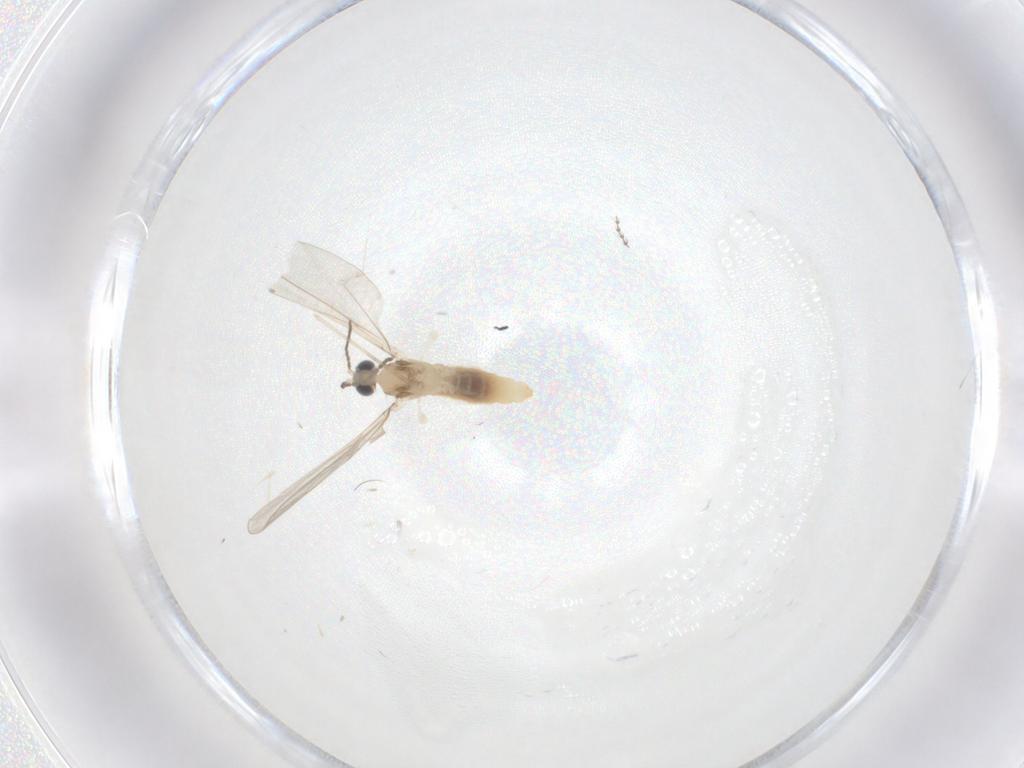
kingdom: Animalia
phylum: Arthropoda
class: Insecta
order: Diptera
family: Cecidomyiidae
